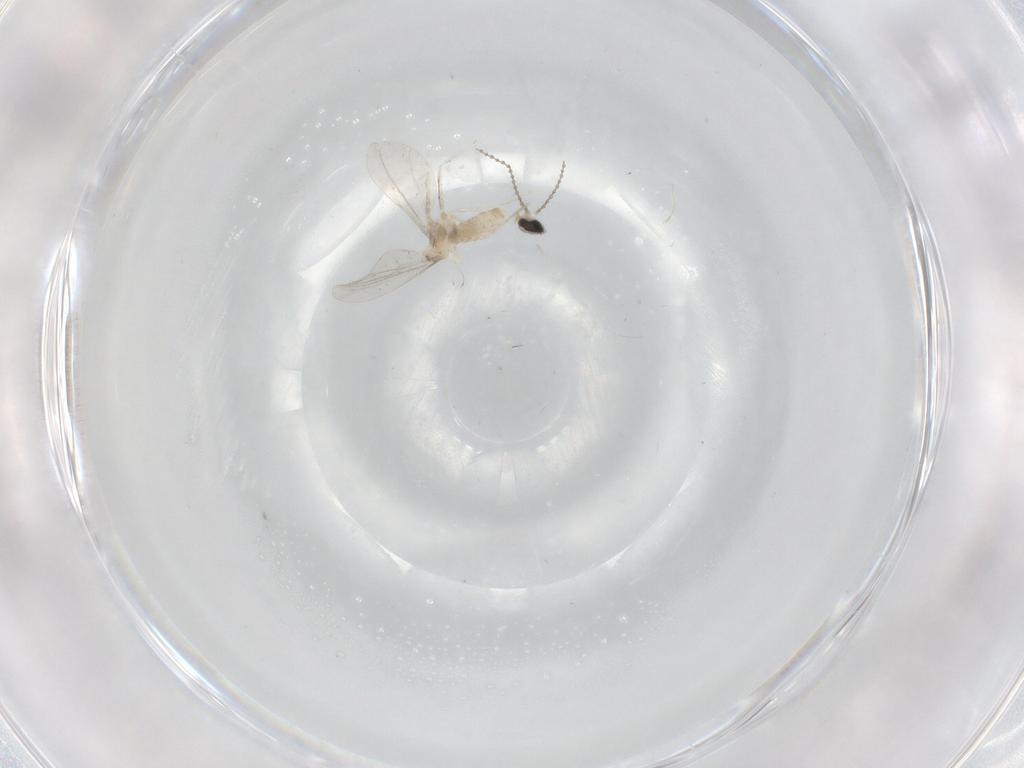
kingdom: Animalia
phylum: Arthropoda
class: Insecta
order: Diptera
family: Cecidomyiidae
